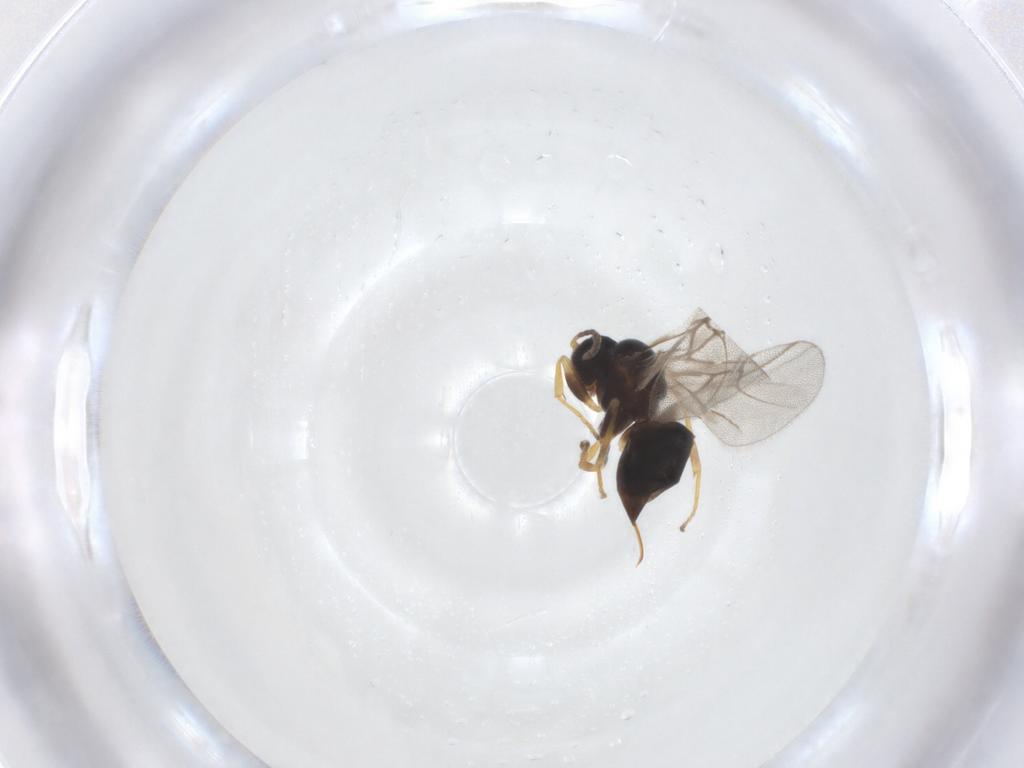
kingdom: Animalia
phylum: Arthropoda
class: Insecta
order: Hymenoptera
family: Cynipidae
